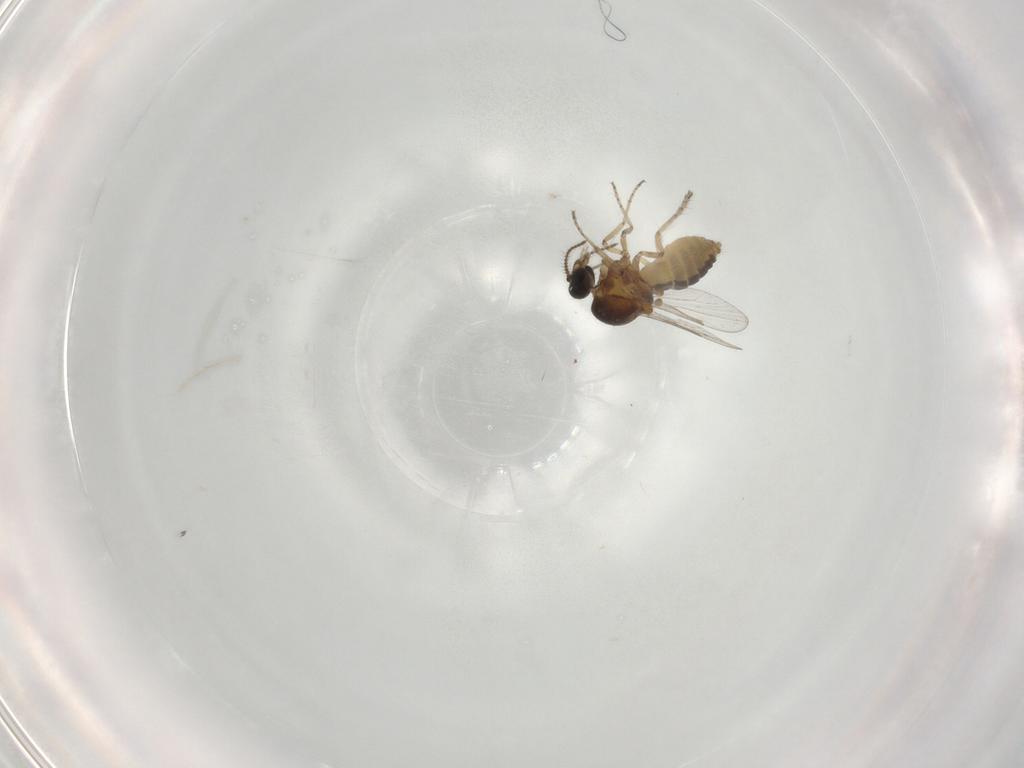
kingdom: Animalia
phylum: Arthropoda
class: Insecta
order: Diptera
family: Ceratopogonidae
